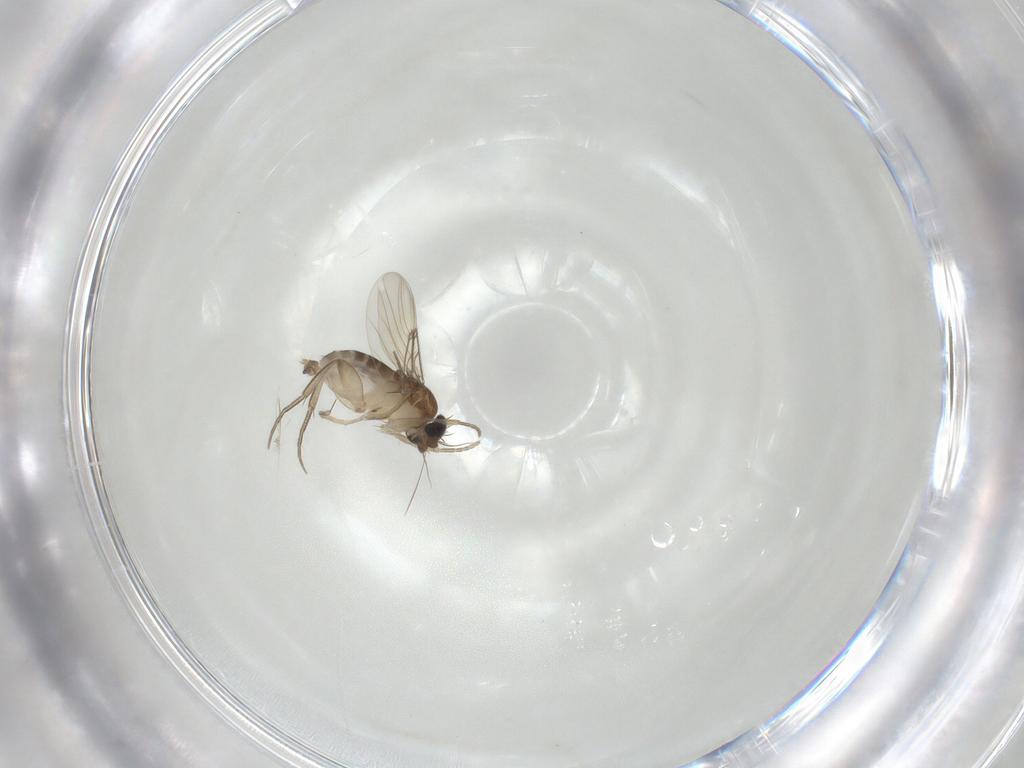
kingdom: Animalia
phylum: Arthropoda
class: Insecta
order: Diptera
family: Phoridae
